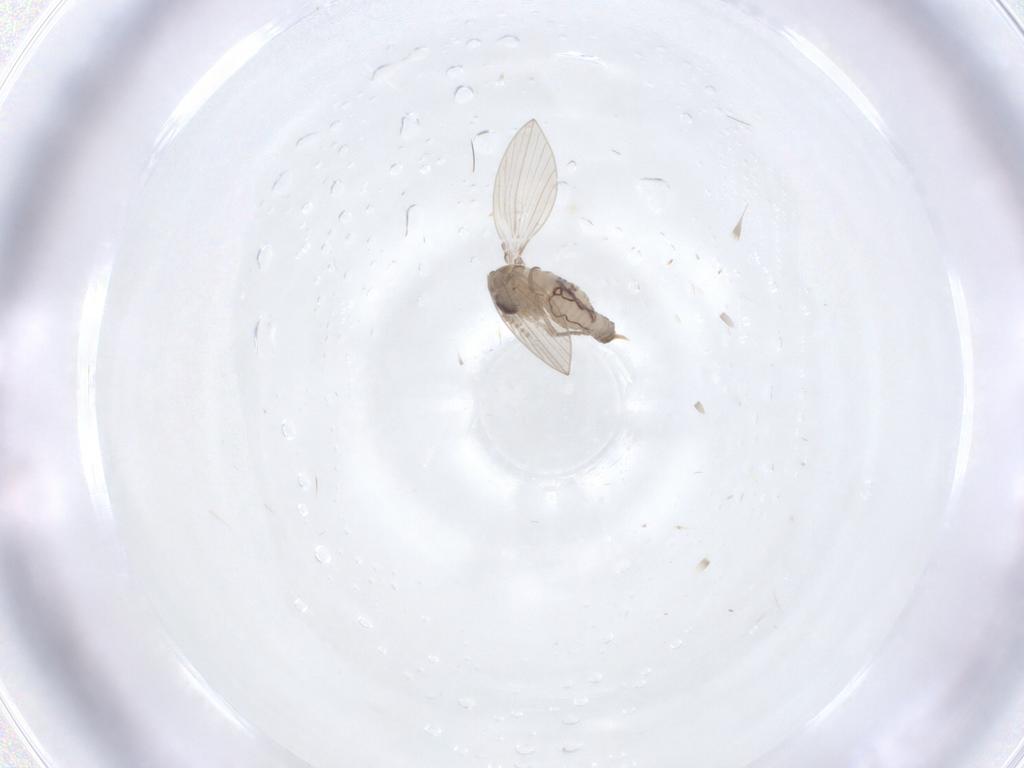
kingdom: Animalia
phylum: Arthropoda
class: Insecta
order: Diptera
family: Psychodidae
